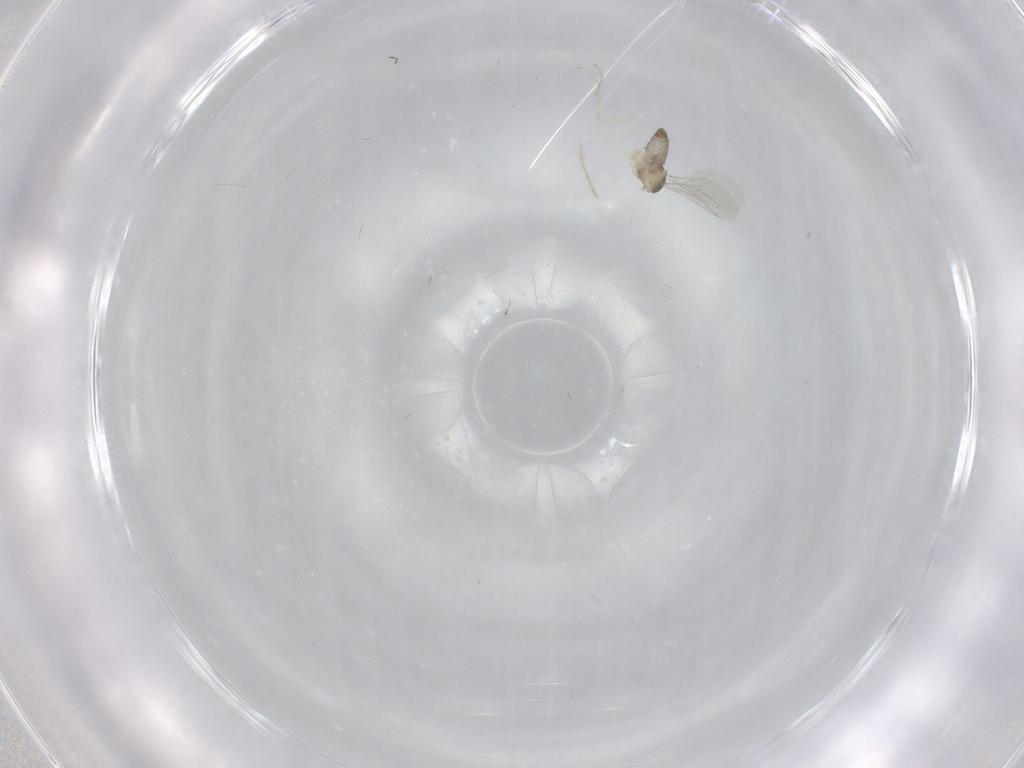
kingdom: Animalia
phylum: Arthropoda
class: Insecta
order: Diptera
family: Cecidomyiidae
